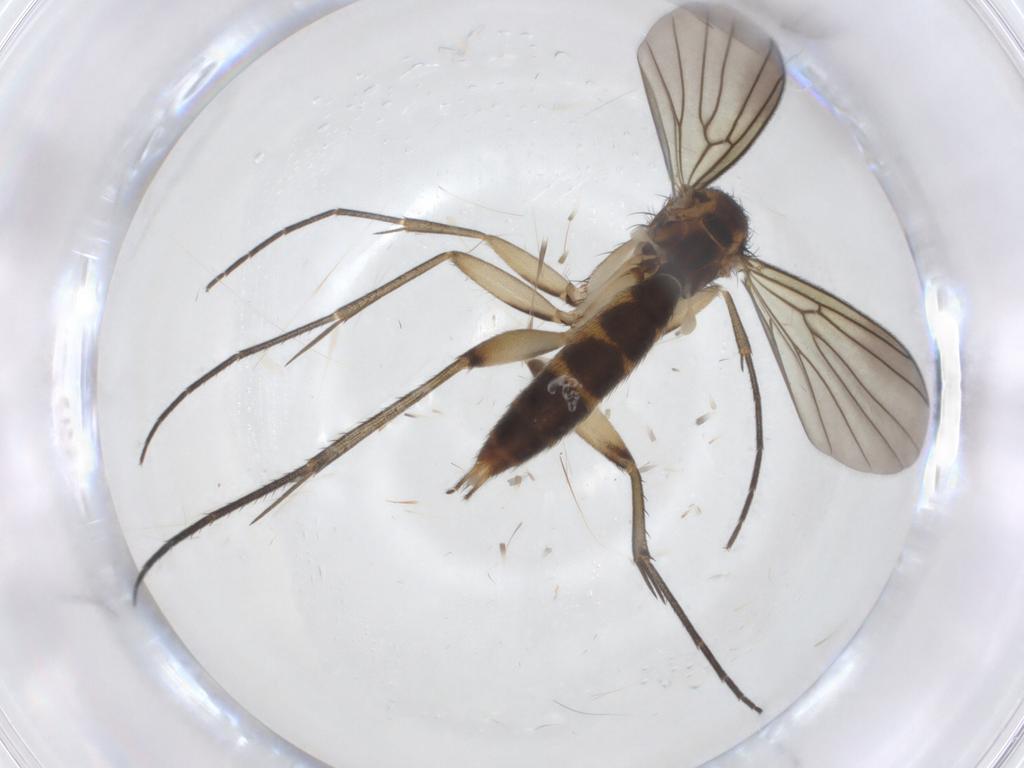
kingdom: Animalia
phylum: Arthropoda
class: Insecta
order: Diptera
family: Mycetophilidae
